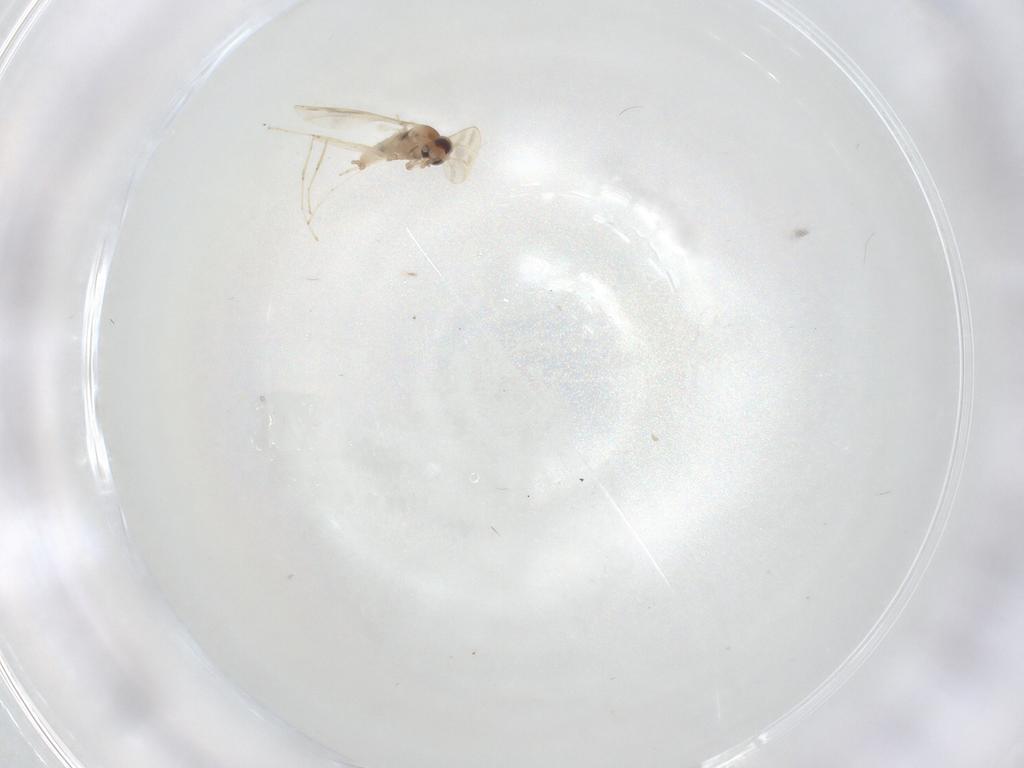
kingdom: Animalia
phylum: Arthropoda
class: Insecta
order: Diptera
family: Cecidomyiidae
